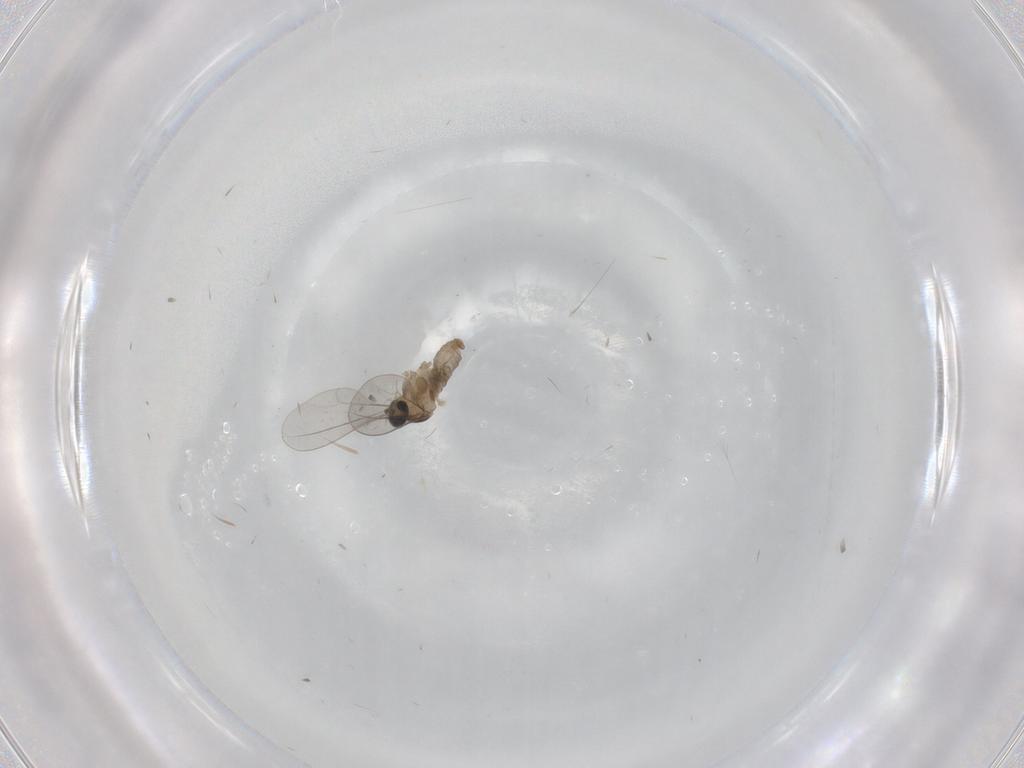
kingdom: Animalia
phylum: Arthropoda
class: Insecta
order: Diptera
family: Cecidomyiidae
